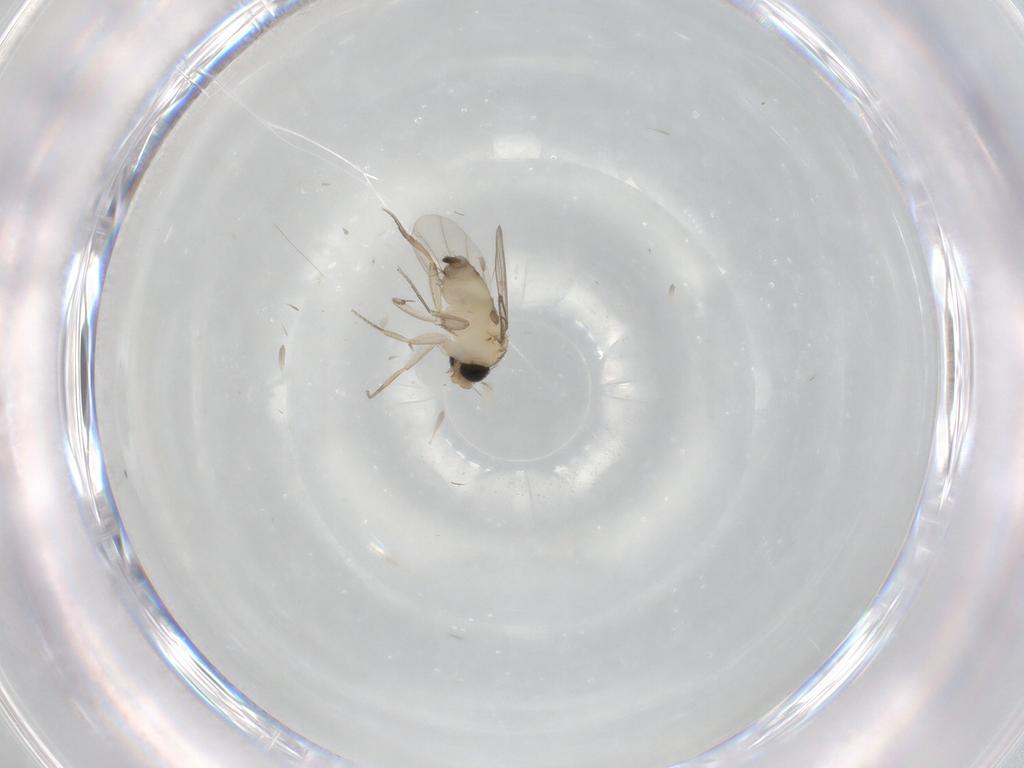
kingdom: Animalia
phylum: Arthropoda
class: Insecta
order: Diptera
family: Phoridae
